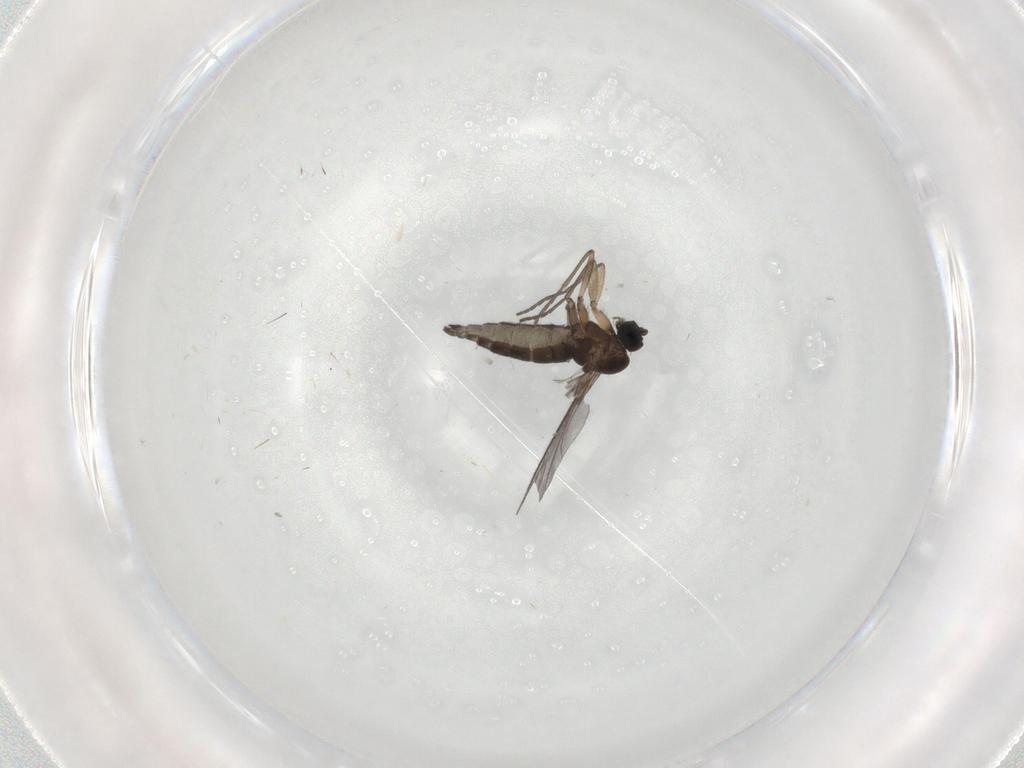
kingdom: Animalia
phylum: Arthropoda
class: Insecta
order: Diptera
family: Sciaridae
